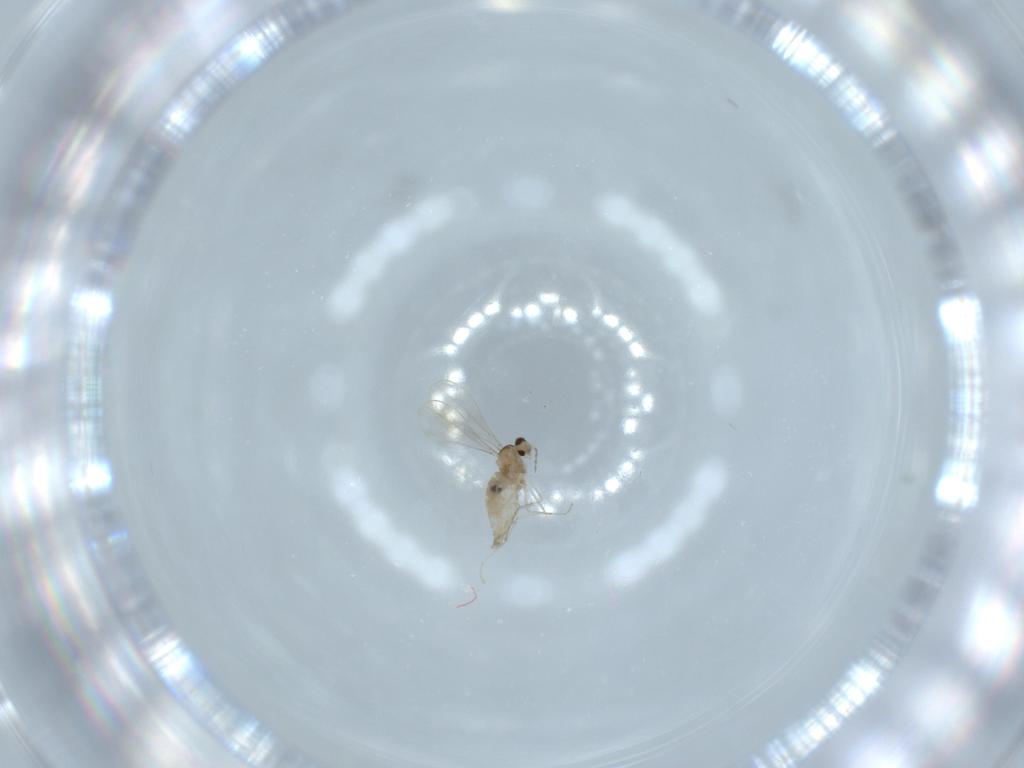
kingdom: Animalia
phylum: Arthropoda
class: Insecta
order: Diptera
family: Cecidomyiidae
